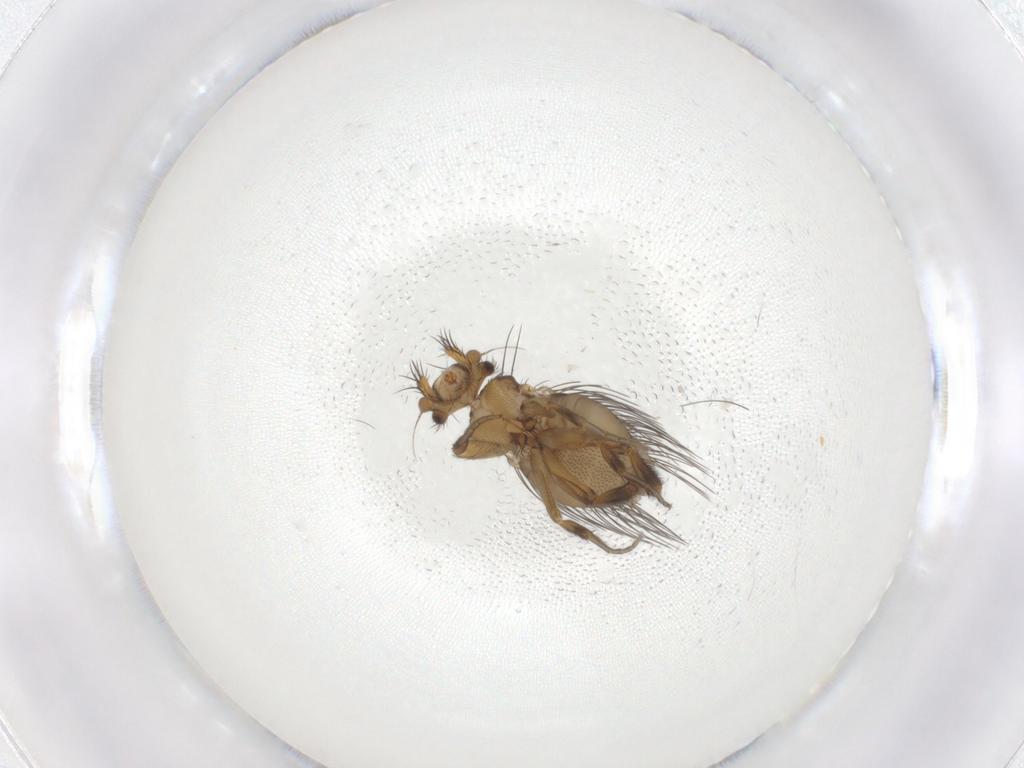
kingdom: Animalia
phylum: Arthropoda
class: Insecta
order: Diptera
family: Phoridae
